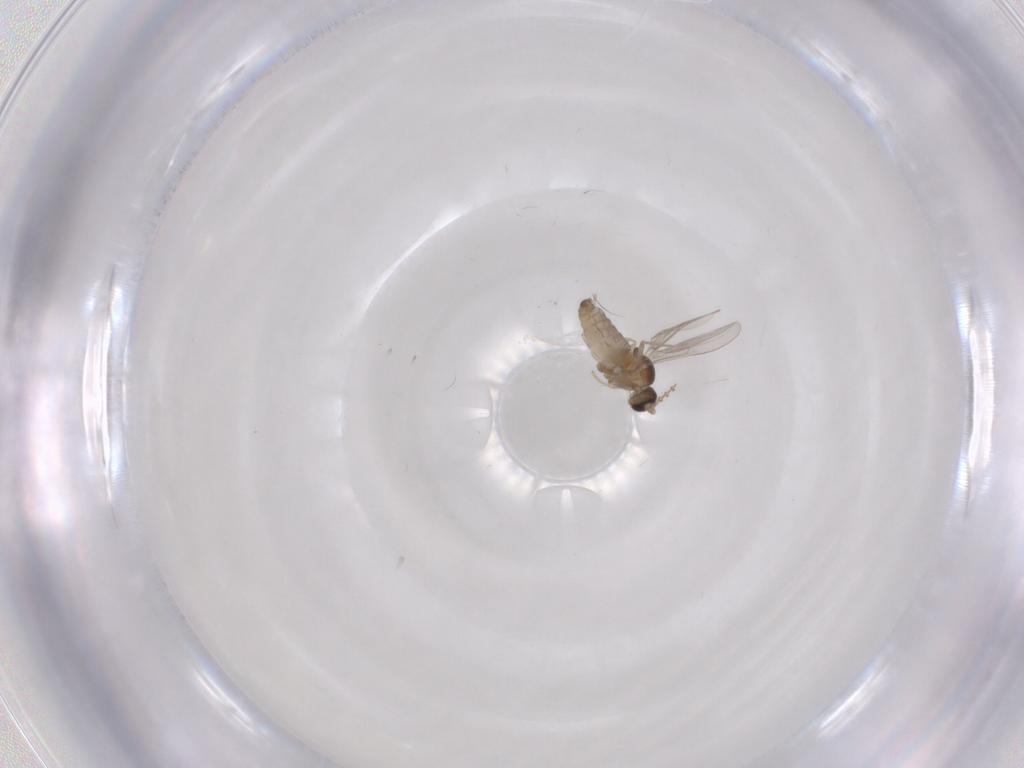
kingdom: Animalia
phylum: Arthropoda
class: Insecta
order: Diptera
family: Cecidomyiidae
